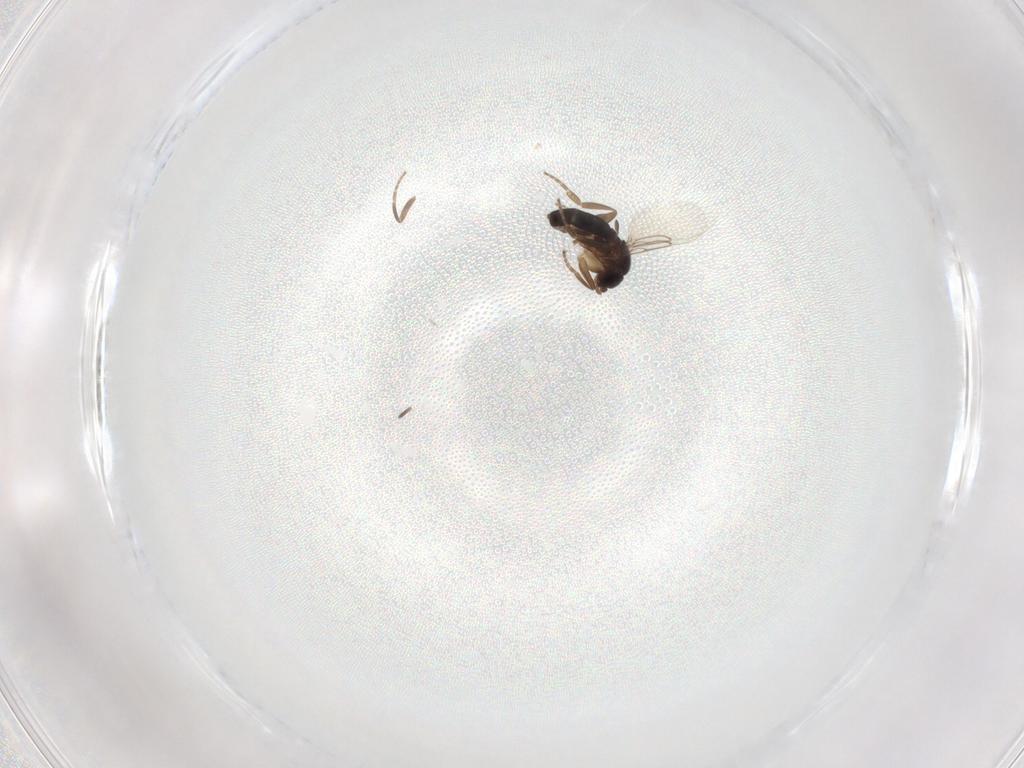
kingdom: Animalia
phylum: Arthropoda
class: Insecta
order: Diptera
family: Phoridae
